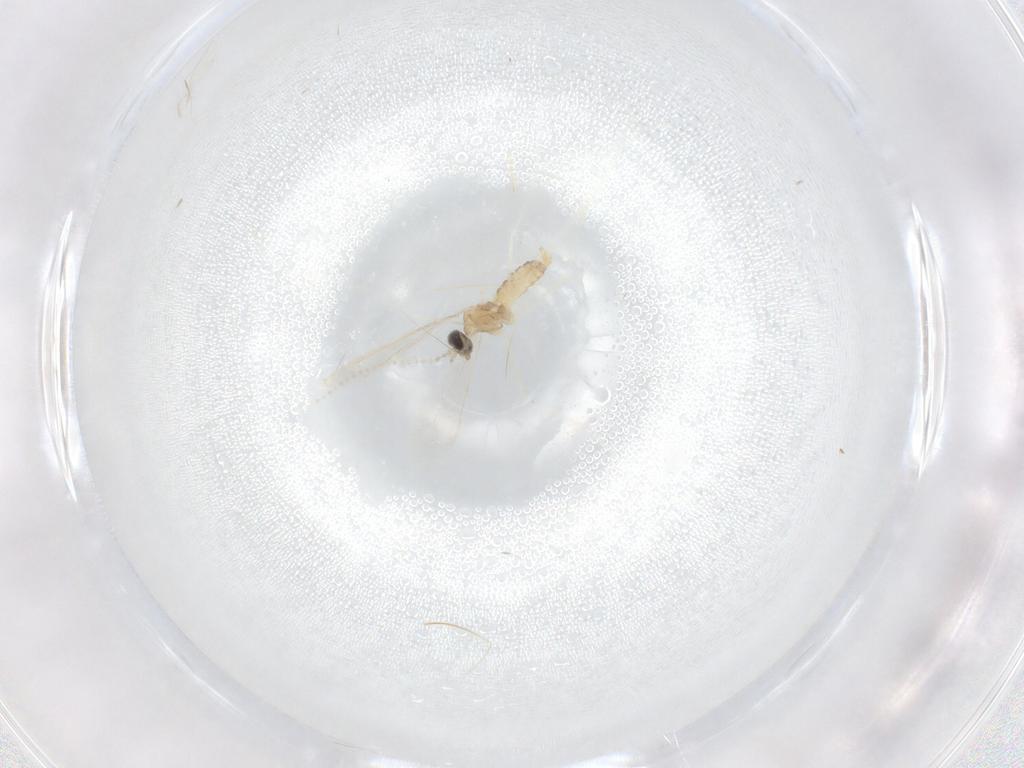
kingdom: Animalia
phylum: Arthropoda
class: Insecta
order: Diptera
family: Cecidomyiidae
